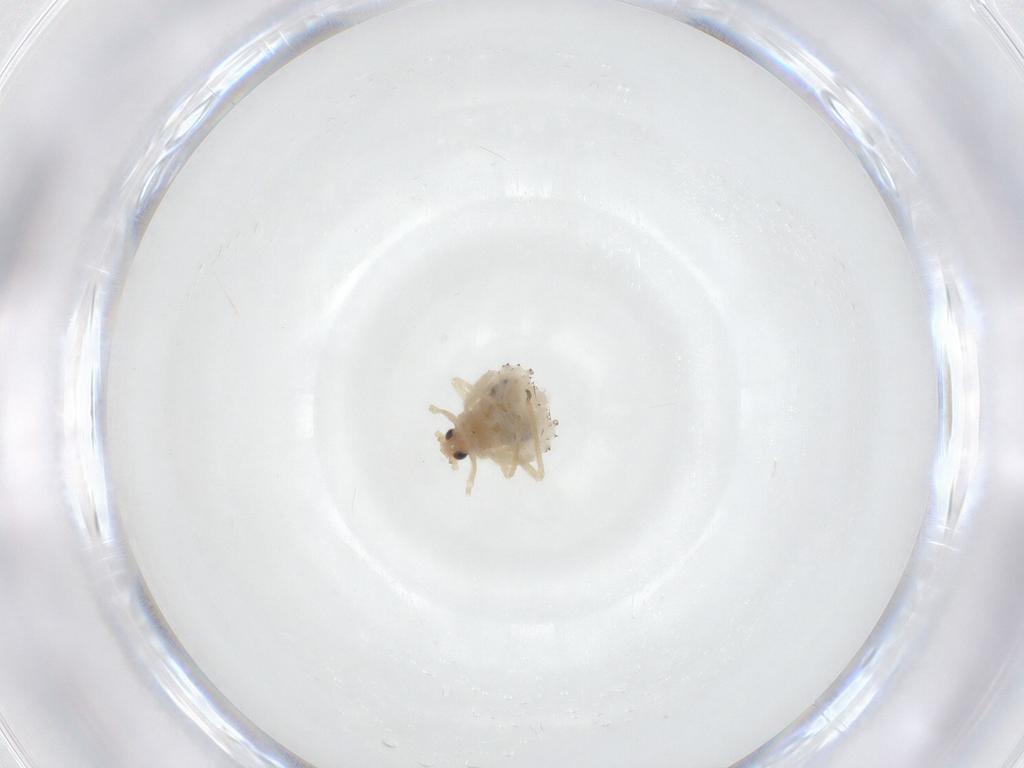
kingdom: Animalia
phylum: Arthropoda
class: Insecta
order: Hemiptera
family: Aphididae
